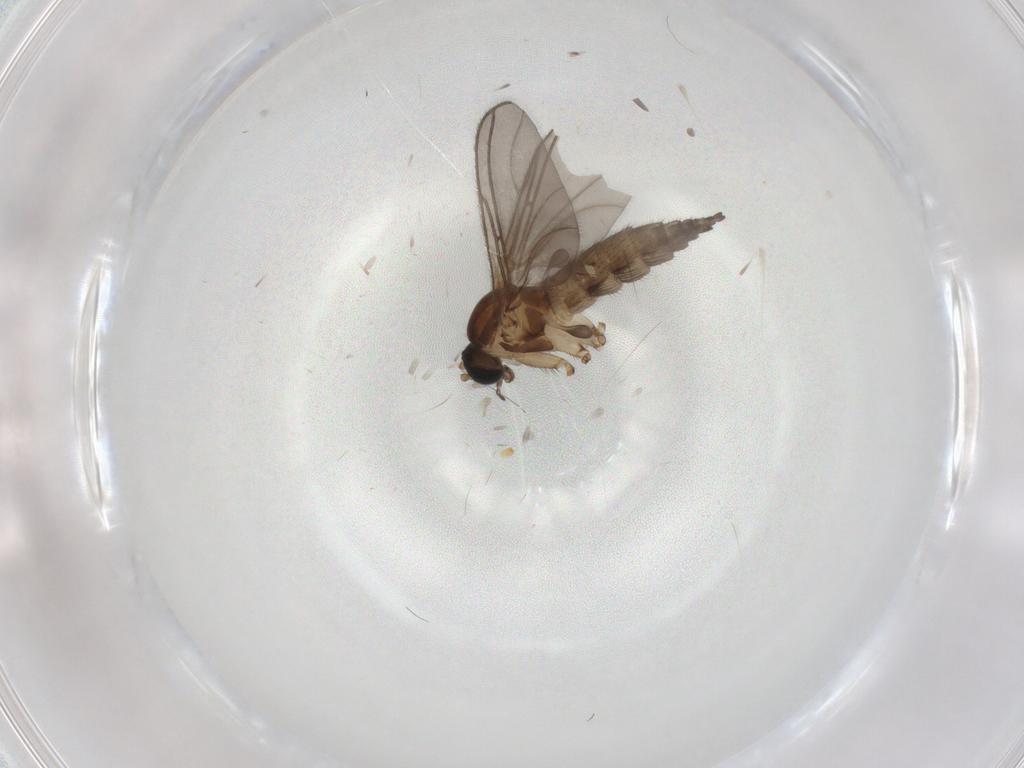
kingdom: Animalia
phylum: Arthropoda
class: Insecta
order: Diptera
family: Sciaridae
